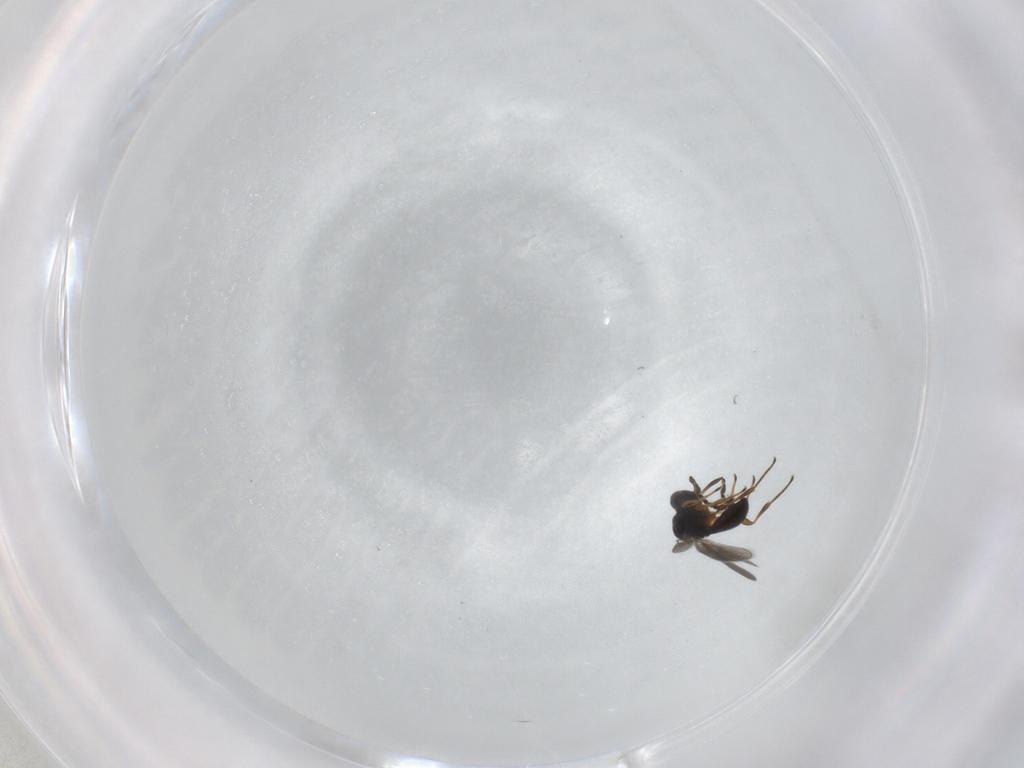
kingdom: Animalia
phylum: Arthropoda
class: Insecta
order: Hymenoptera
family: Platygastridae
